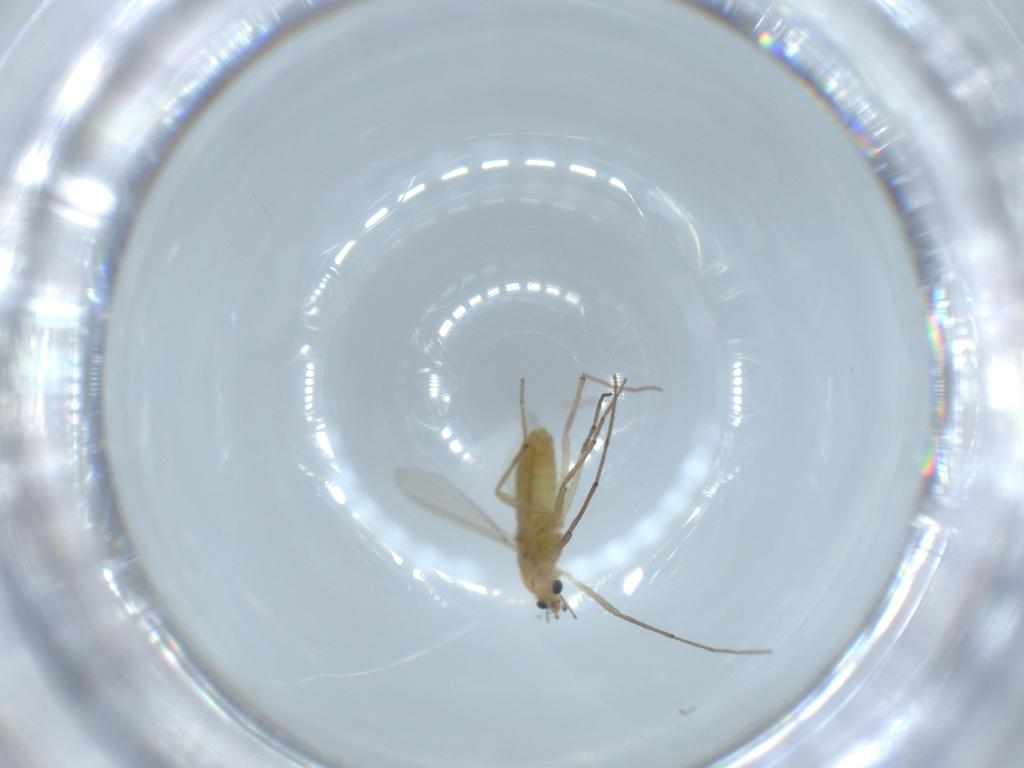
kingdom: Animalia
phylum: Arthropoda
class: Insecta
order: Diptera
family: Chironomidae
